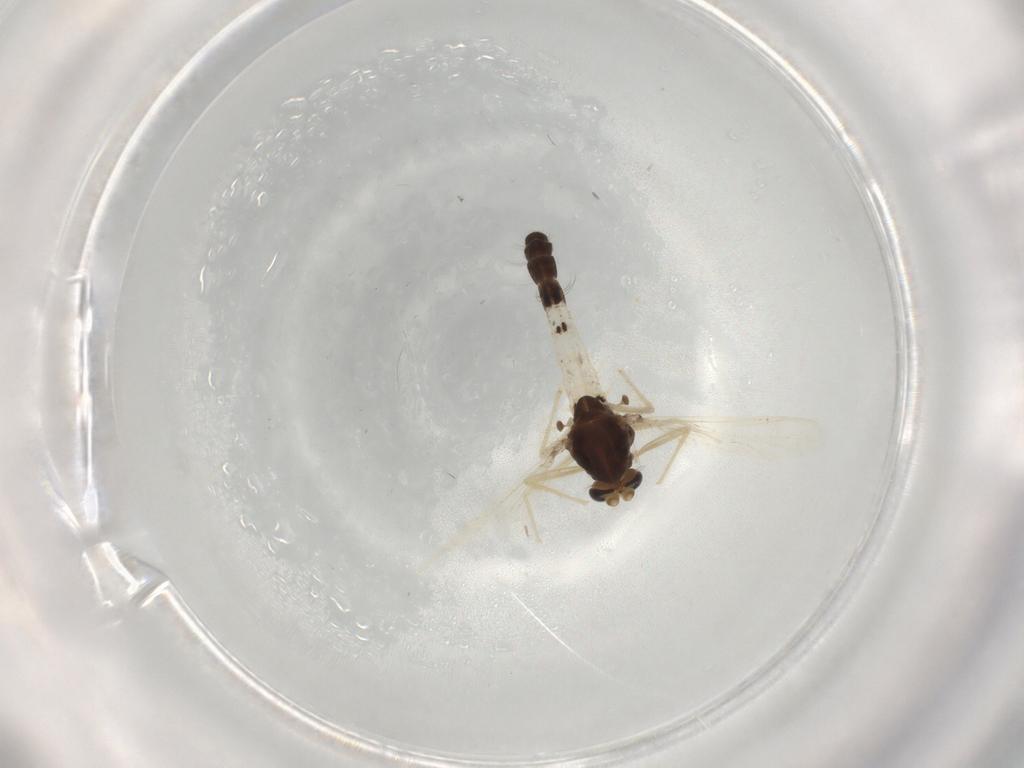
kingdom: Animalia
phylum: Arthropoda
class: Insecta
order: Diptera
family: Chironomidae
